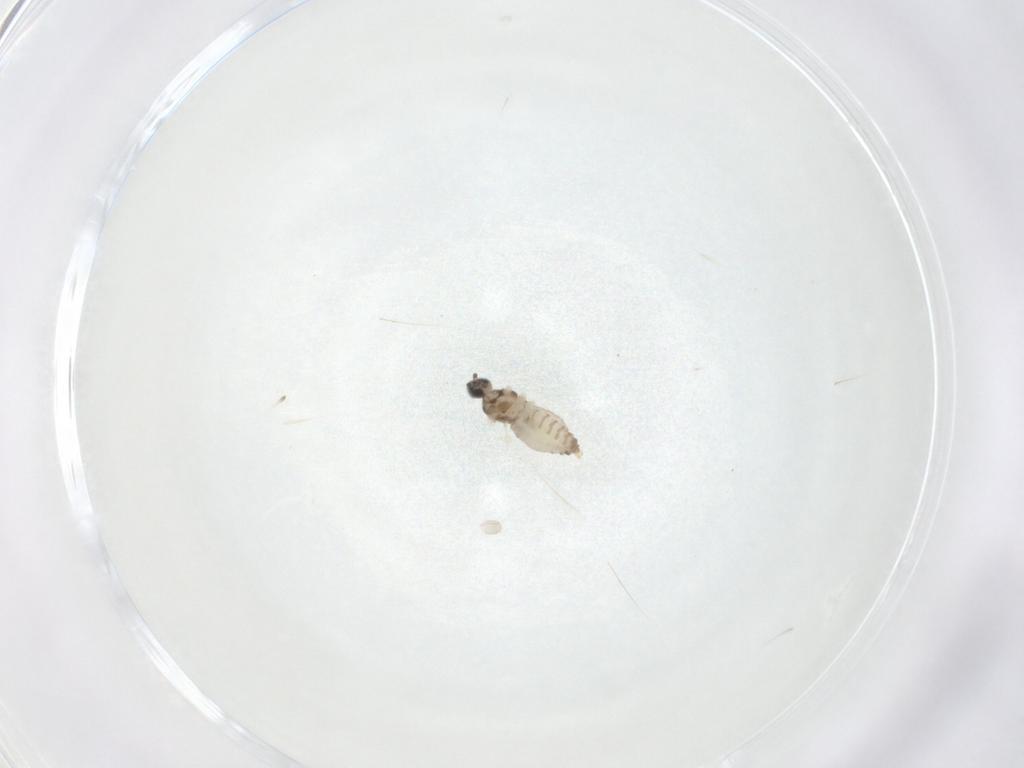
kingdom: Animalia
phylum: Arthropoda
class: Insecta
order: Diptera
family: Cecidomyiidae
